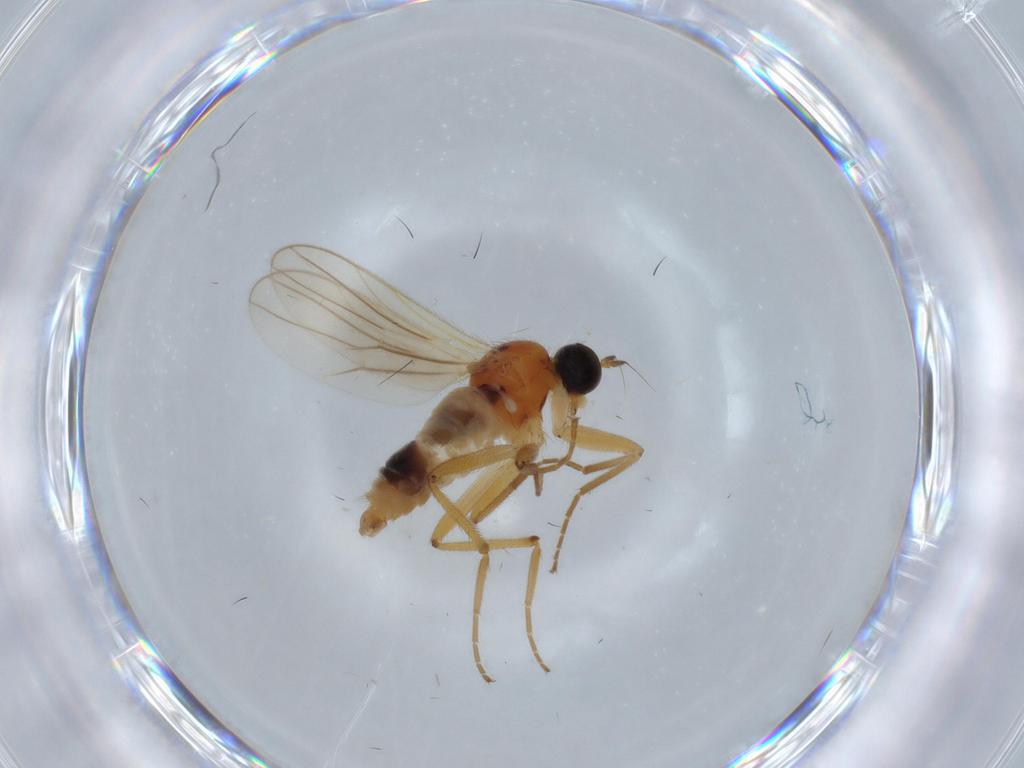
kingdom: Animalia
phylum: Arthropoda
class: Insecta
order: Diptera
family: Hybotidae
